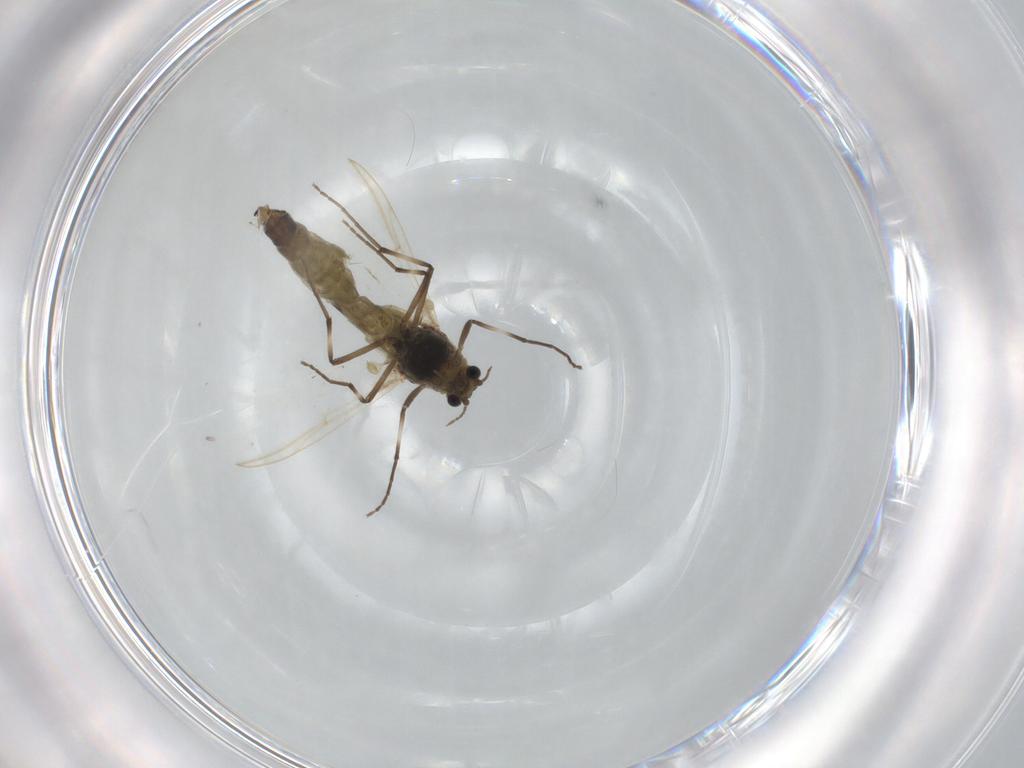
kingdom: Animalia
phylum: Arthropoda
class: Insecta
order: Diptera
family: Anthomyiidae
